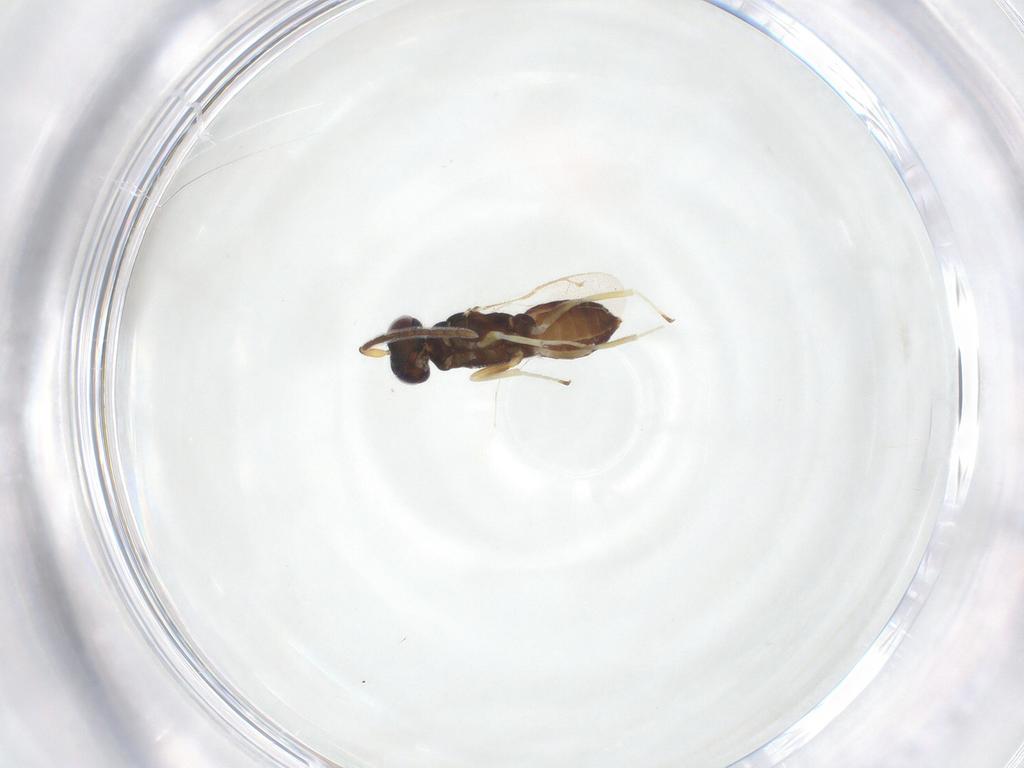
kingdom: Animalia
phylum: Arthropoda
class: Insecta
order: Hymenoptera
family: Eupelmidae
